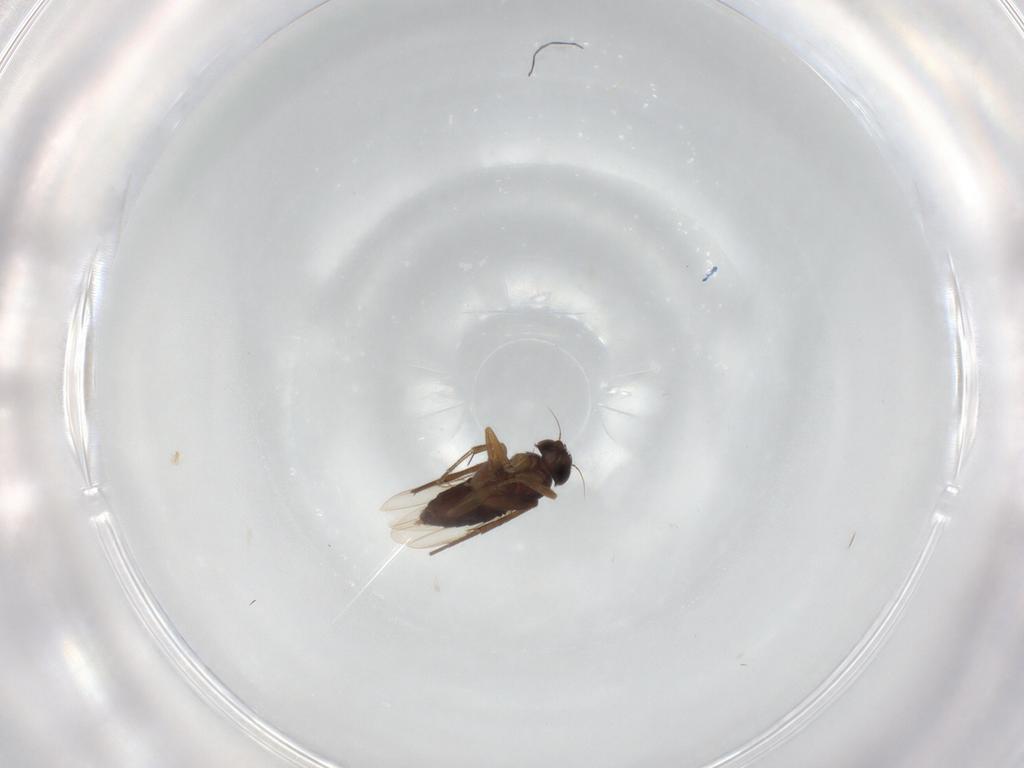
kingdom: Animalia
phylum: Arthropoda
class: Insecta
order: Diptera
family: Phoridae
